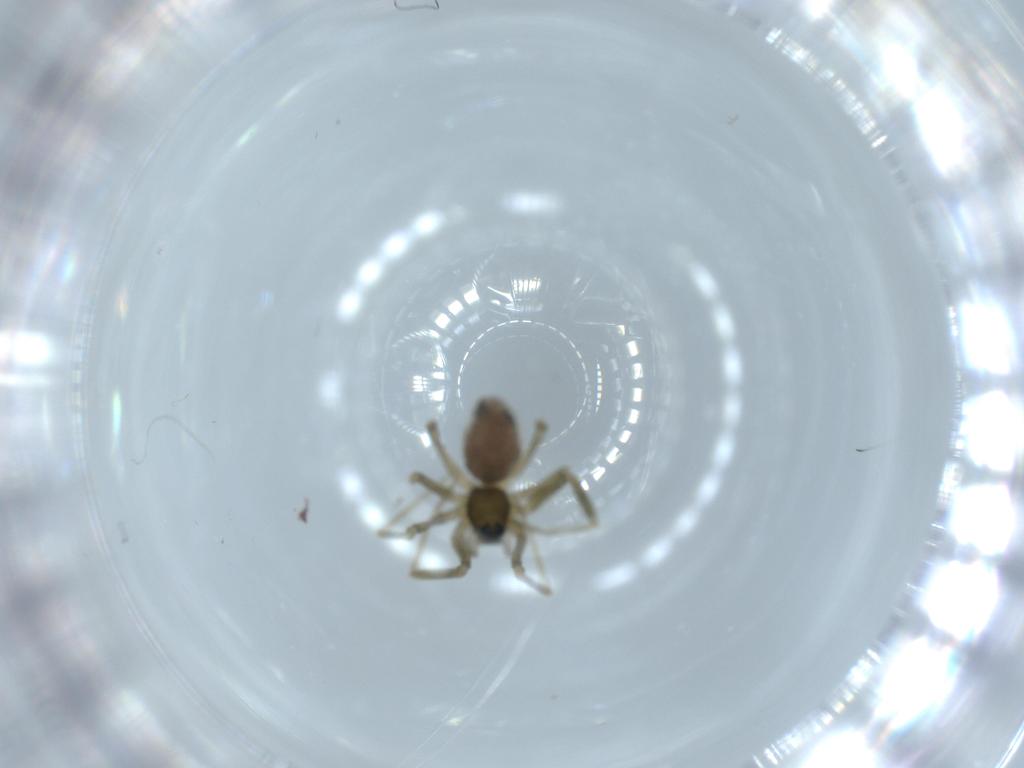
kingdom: Animalia
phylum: Arthropoda
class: Arachnida
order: Araneae
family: Linyphiidae
